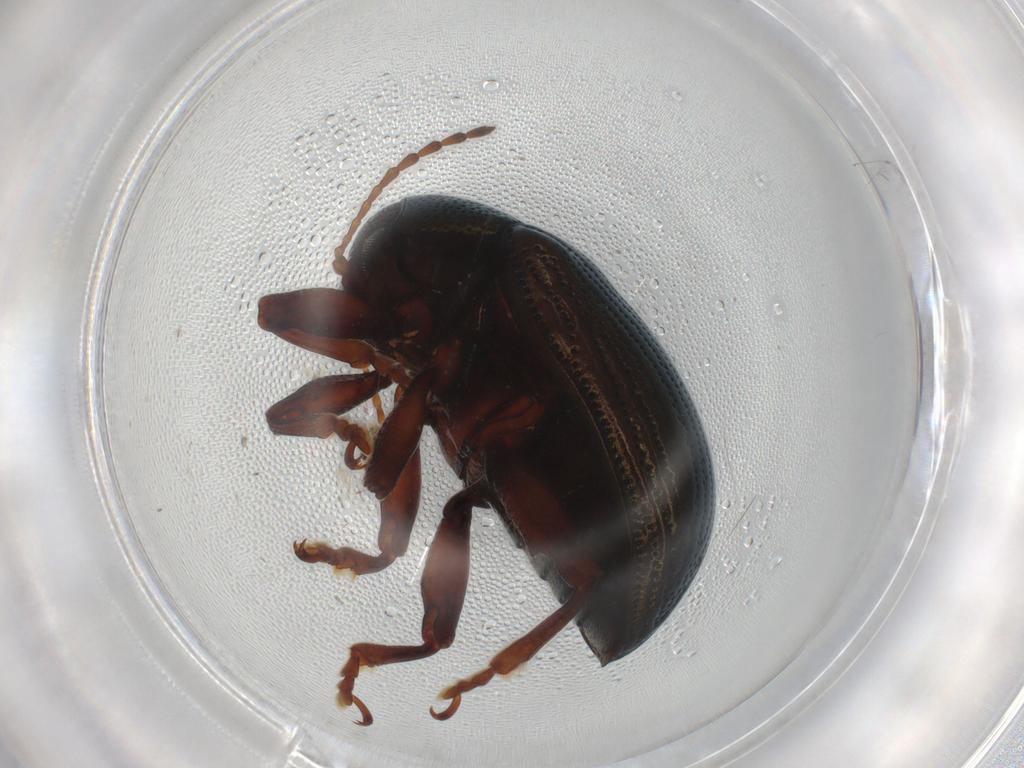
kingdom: Animalia
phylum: Arthropoda
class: Insecta
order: Coleoptera
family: Chrysomelidae
